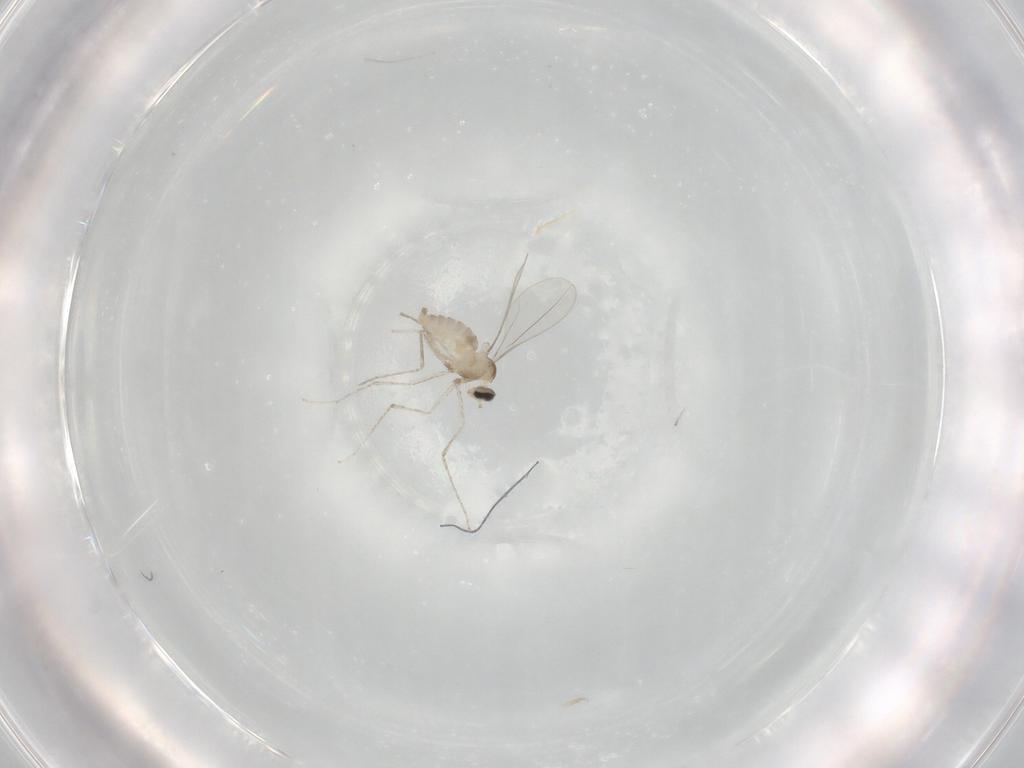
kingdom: Animalia
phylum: Arthropoda
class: Insecta
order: Diptera
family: Cecidomyiidae
